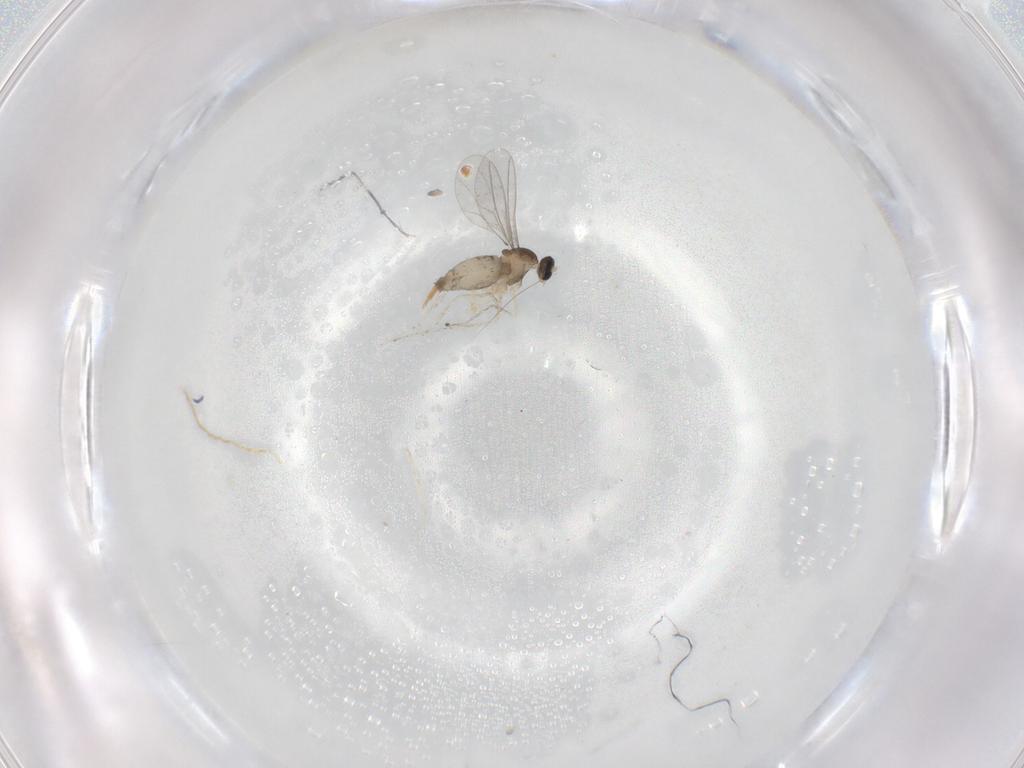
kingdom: Animalia
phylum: Arthropoda
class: Insecta
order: Diptera
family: Cecidomyiidae
